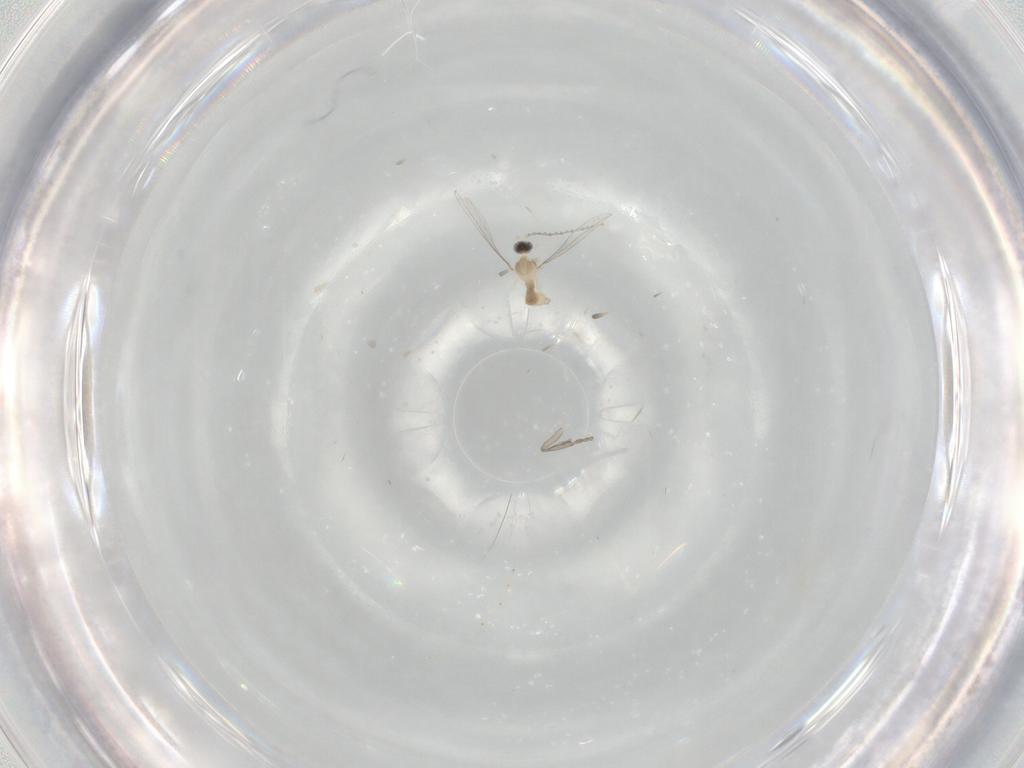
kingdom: Animalia
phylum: Arthropoda
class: Insecta
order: Diptera
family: Cecidomyiidae
